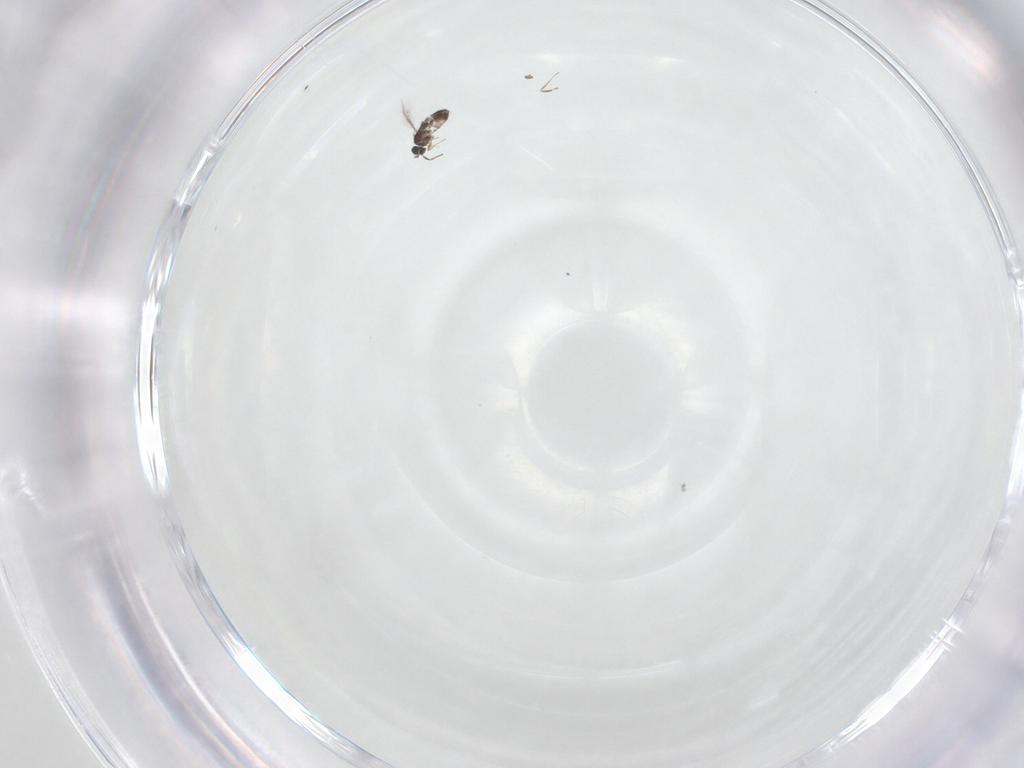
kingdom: Animalia
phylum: Arthropoda
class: Insecta
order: Hymenoptera
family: Mymaridae
